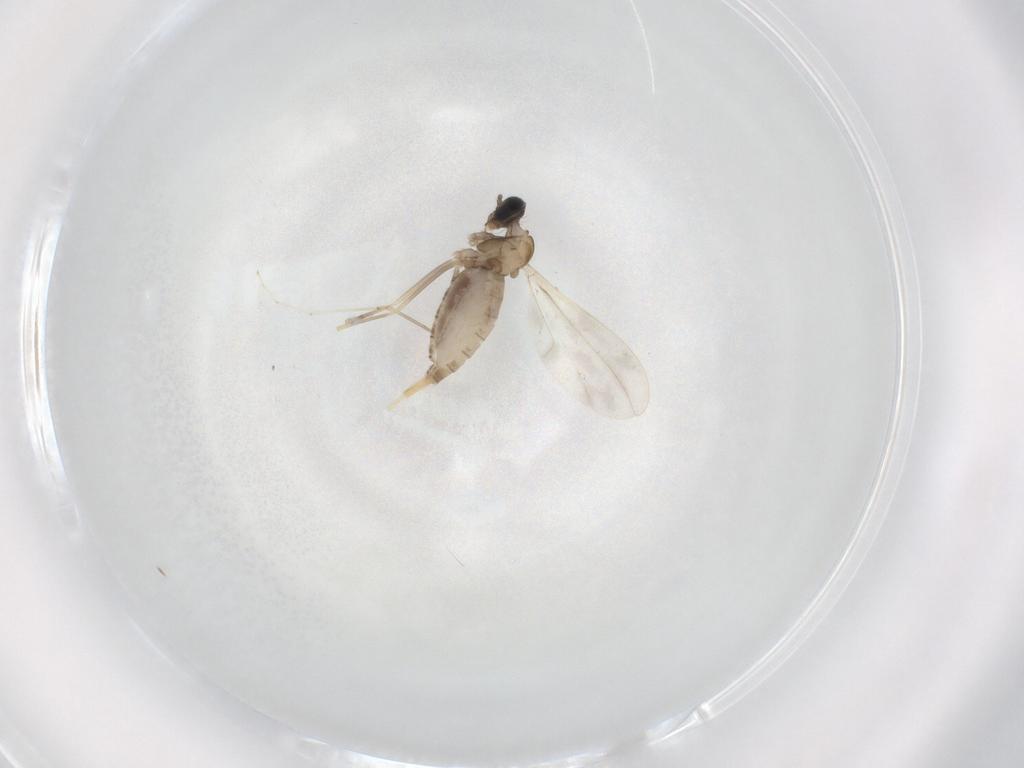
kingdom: Animalia
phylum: Arthropoda
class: Insecta
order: Diptera
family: Cecidomyiidae
